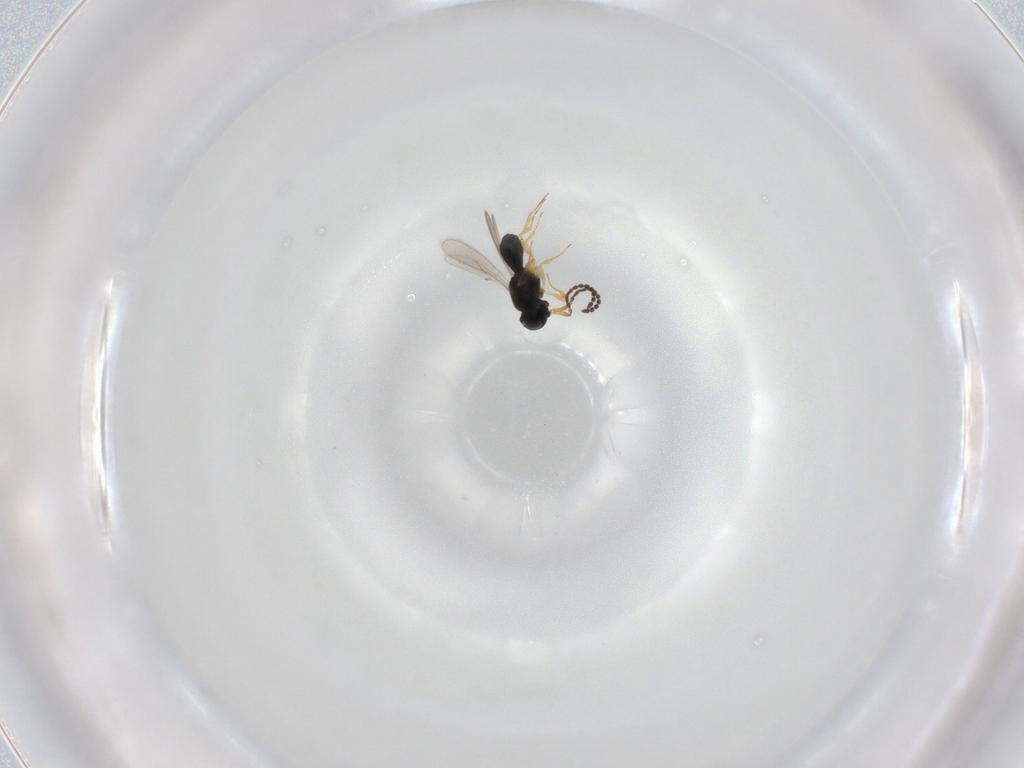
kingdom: Animalia
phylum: Arthropoda
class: Insecta
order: Hymenoptera
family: Scelionidae
